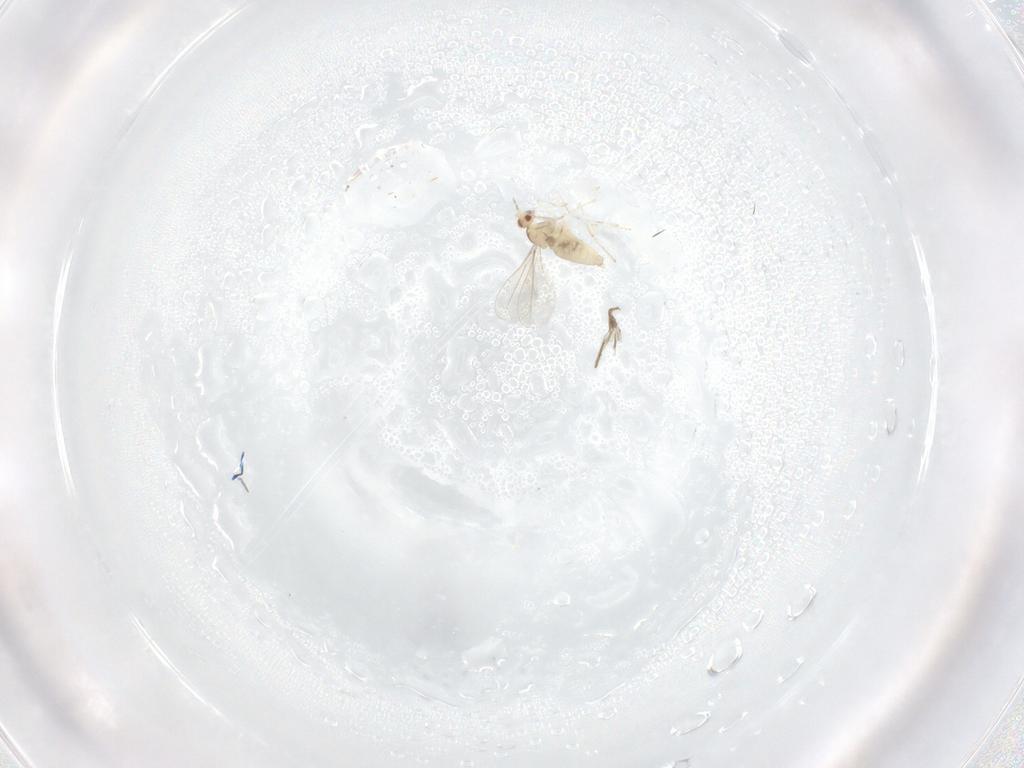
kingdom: Animalia
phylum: Arthropoda
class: Insecta
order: Diptera
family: Cecidomyiidae
